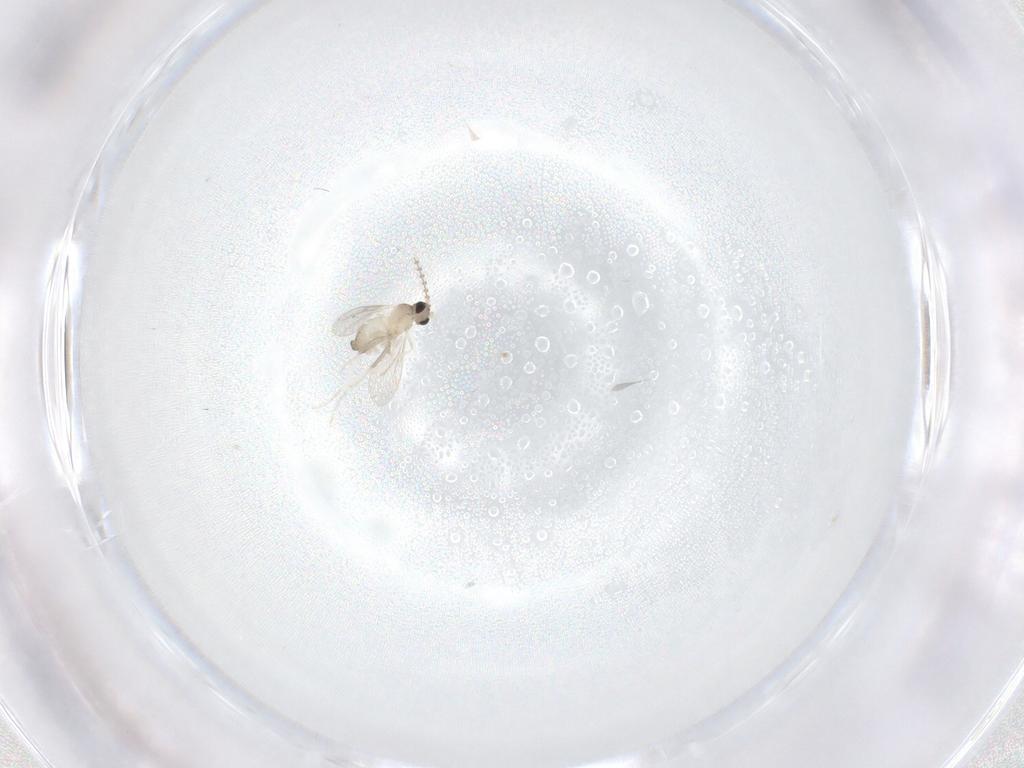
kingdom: Animalia
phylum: Arthropoda
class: Insecta
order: Diptera
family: Cecidomyiidae
